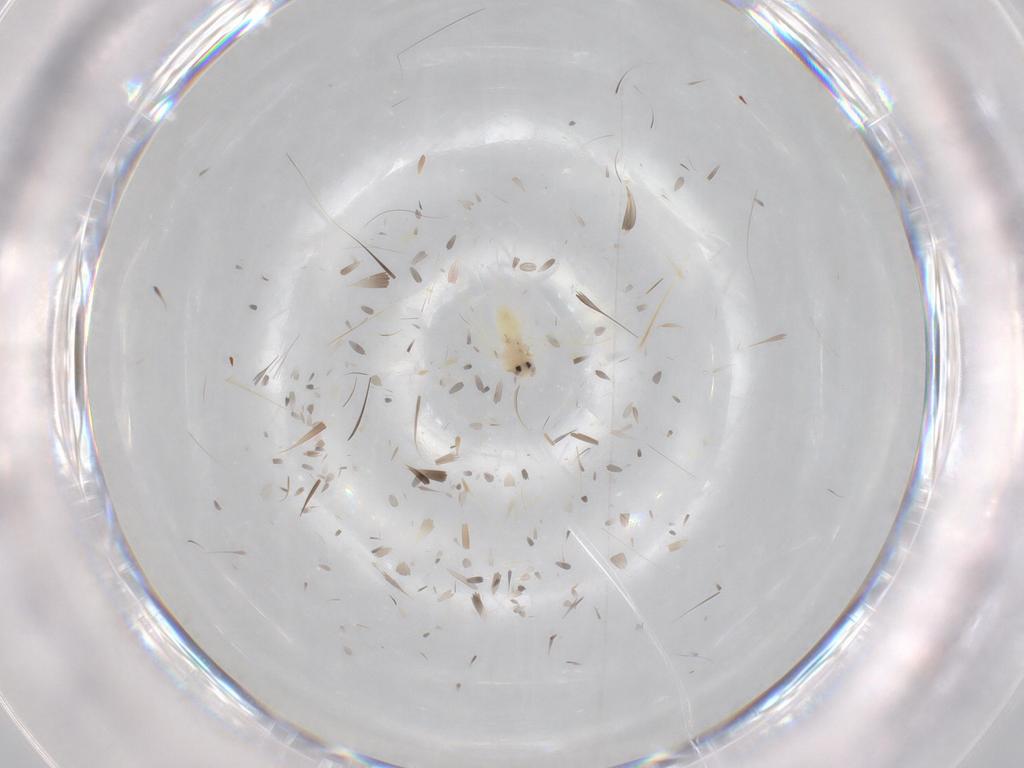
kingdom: Animalia
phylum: Arthropoda
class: Insecta
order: Hemiptera
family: Aleyrodidae
